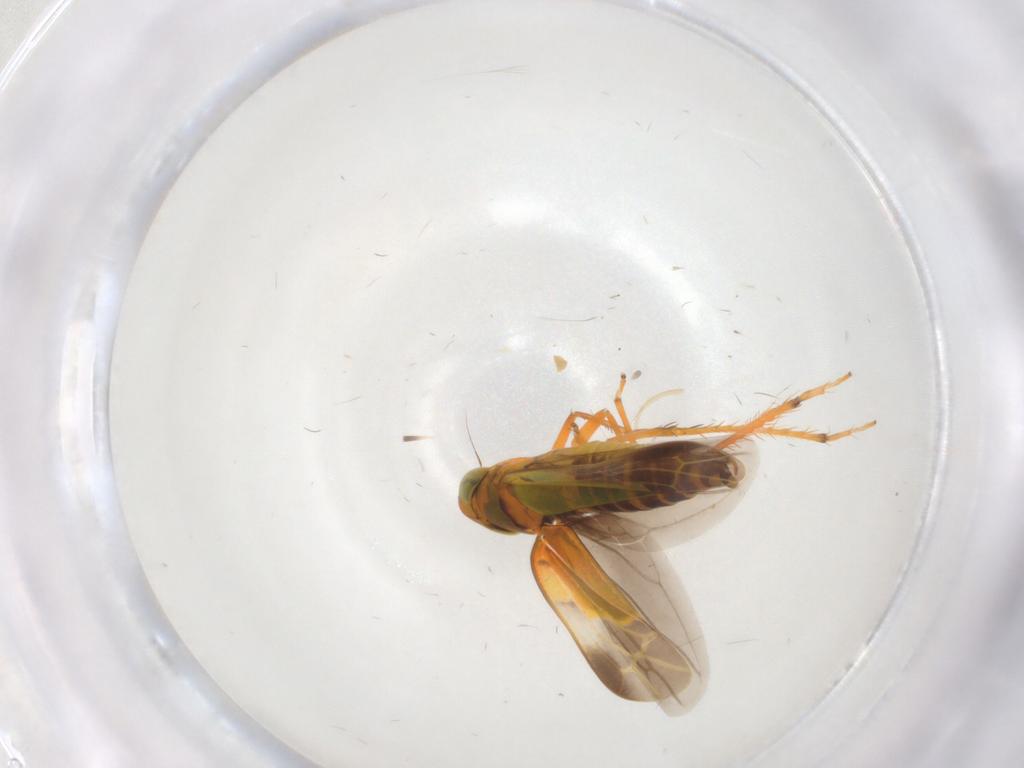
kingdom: Animalia
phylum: Arthropoda
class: Insecta
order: Hemiptera
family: Cicadellidae
